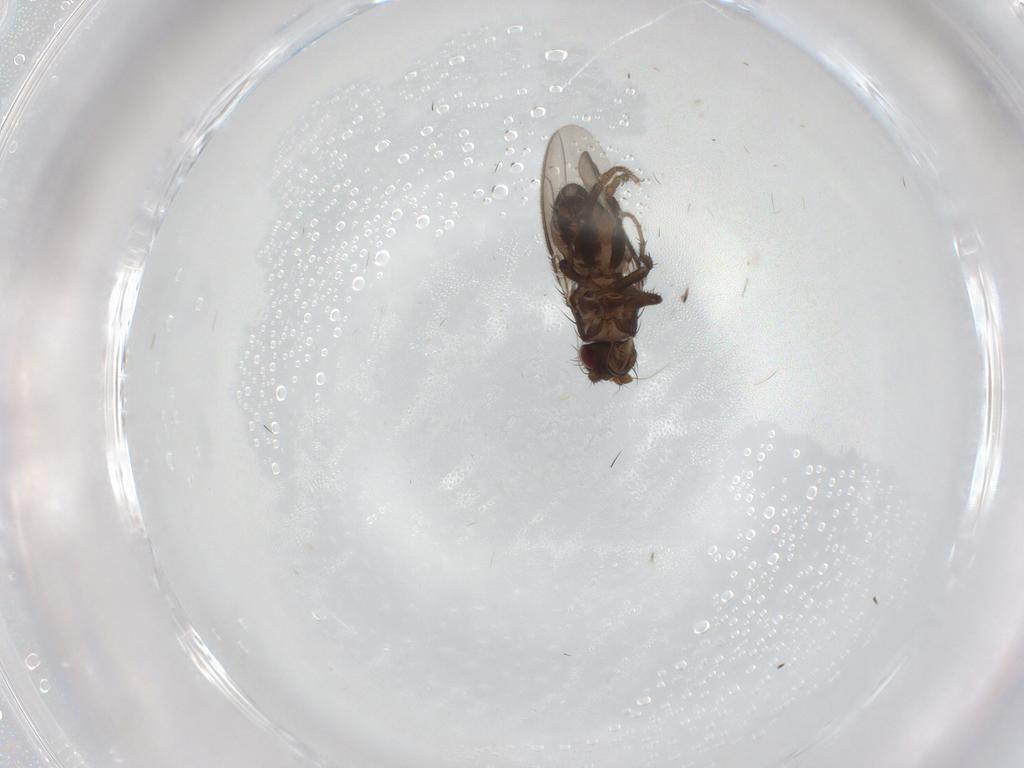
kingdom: Animalia
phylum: Arthropoda
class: Insecta
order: Diptera
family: Sphaeroceridae
